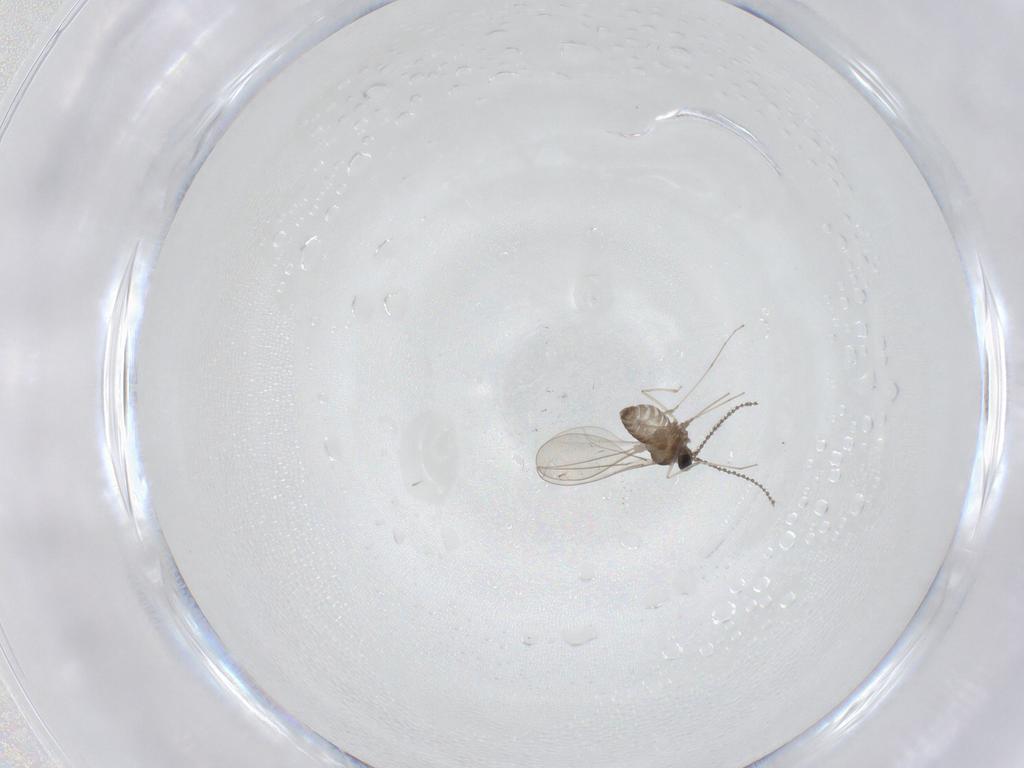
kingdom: Animalia
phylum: Arthropoda
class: Insecta
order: Diptera
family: Cecidomyiidae
